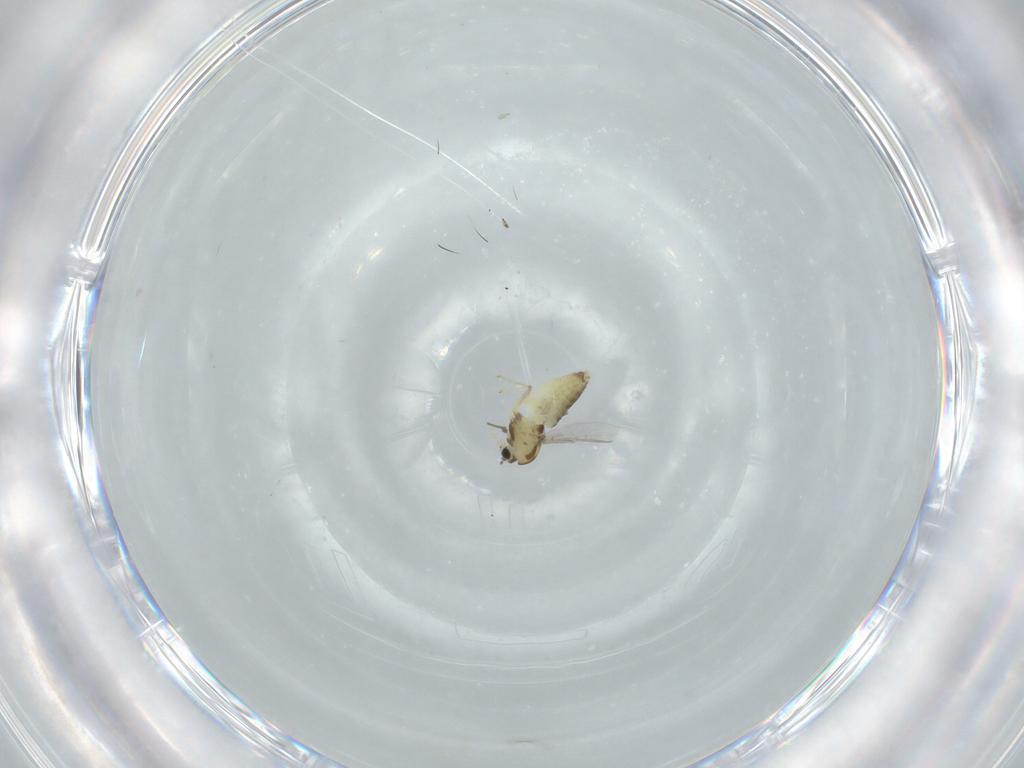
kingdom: Animalia
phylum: Arthropoda
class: Insecta
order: Diptera
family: Chironomidae
